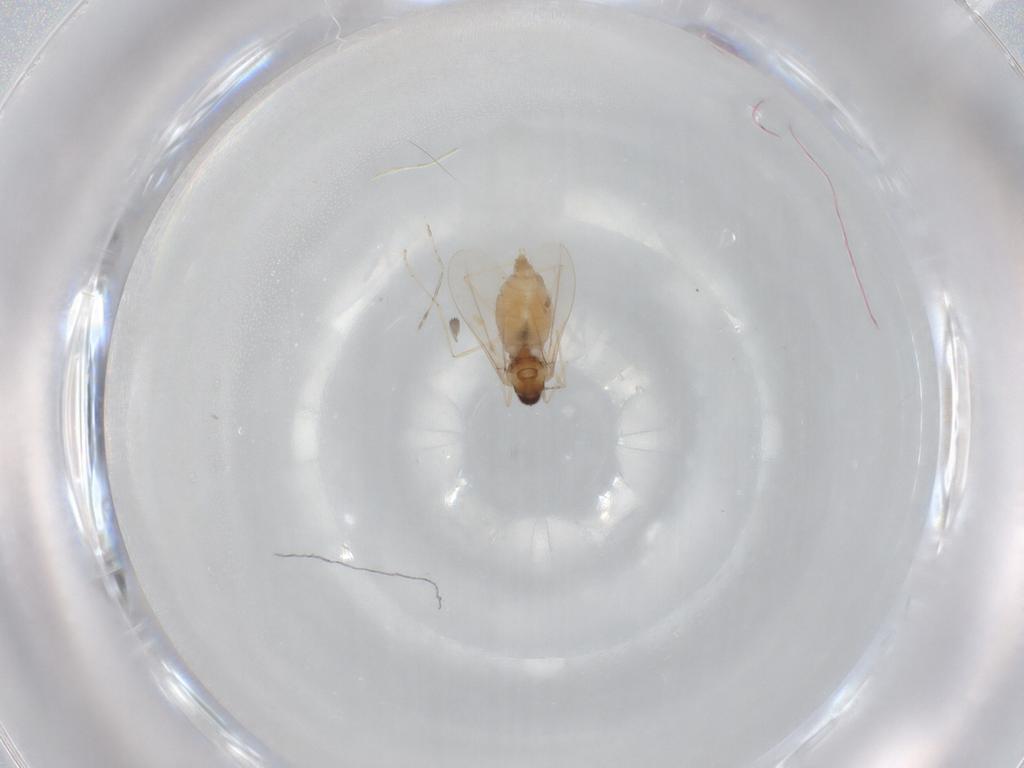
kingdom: Animalia
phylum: Arthropoda
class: Insecta
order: Diptera
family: Cecidomyiidae
